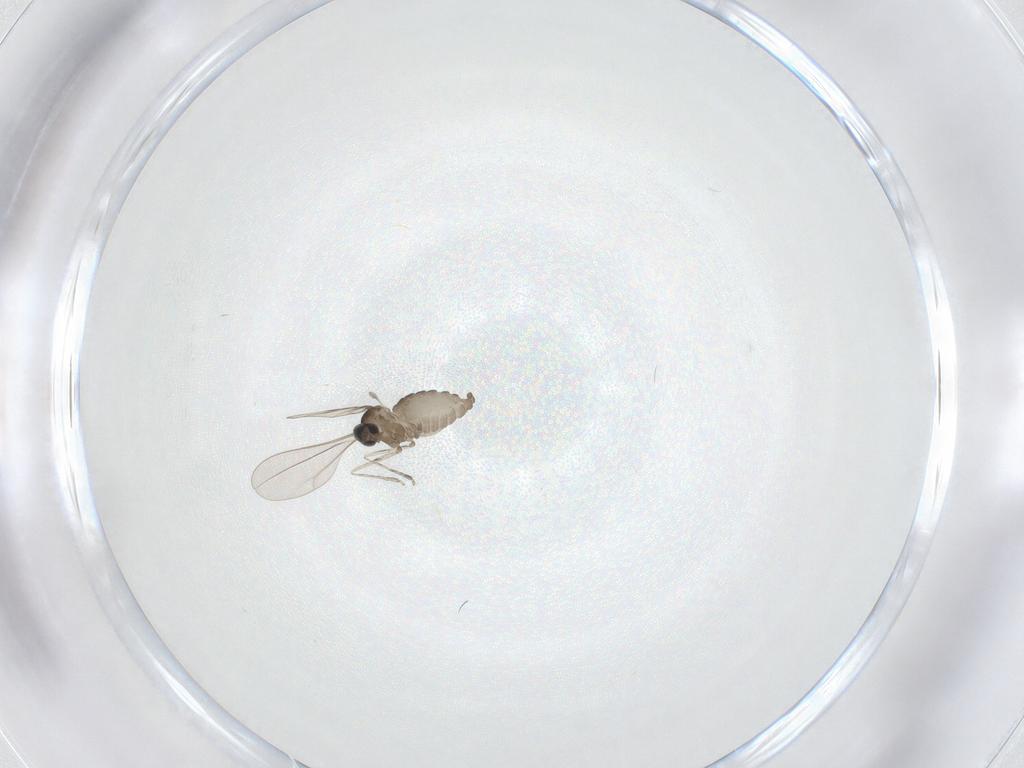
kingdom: Animalia
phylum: Arthropoda
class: Insecta
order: Diptera
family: Cecidomyiidae
